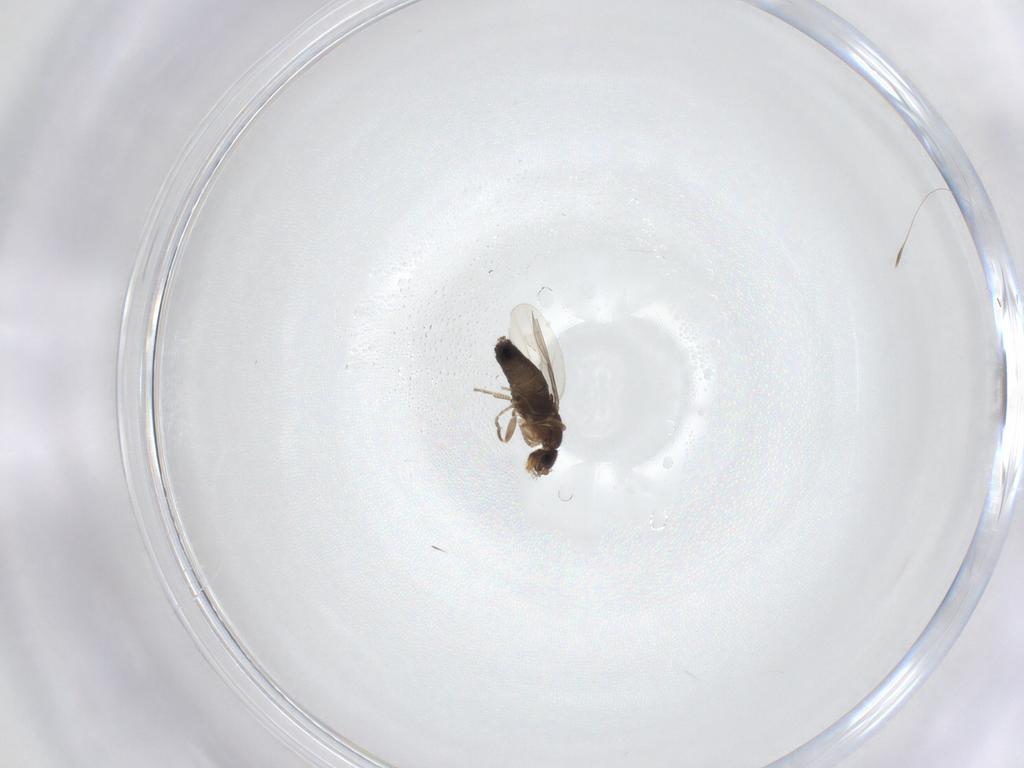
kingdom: Animalia
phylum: Arthropoda
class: Insecta
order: Diptera
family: Phoridae
